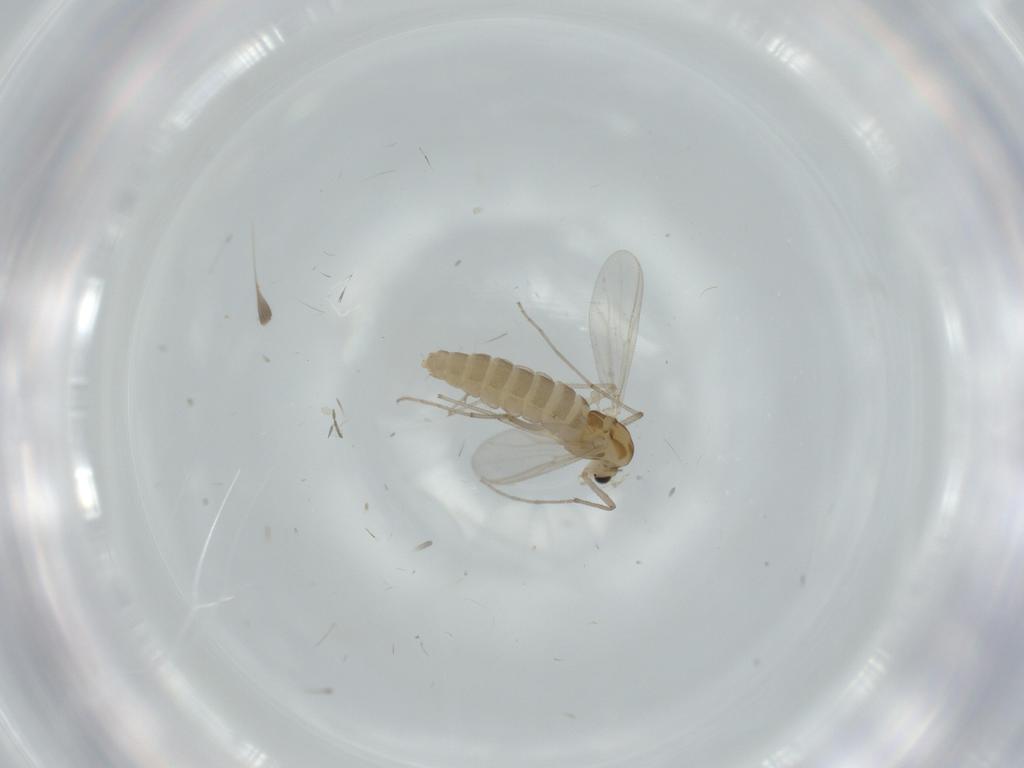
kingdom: Animalia
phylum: Arthropoda
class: Insecta
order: Diptera
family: Chironomidae
